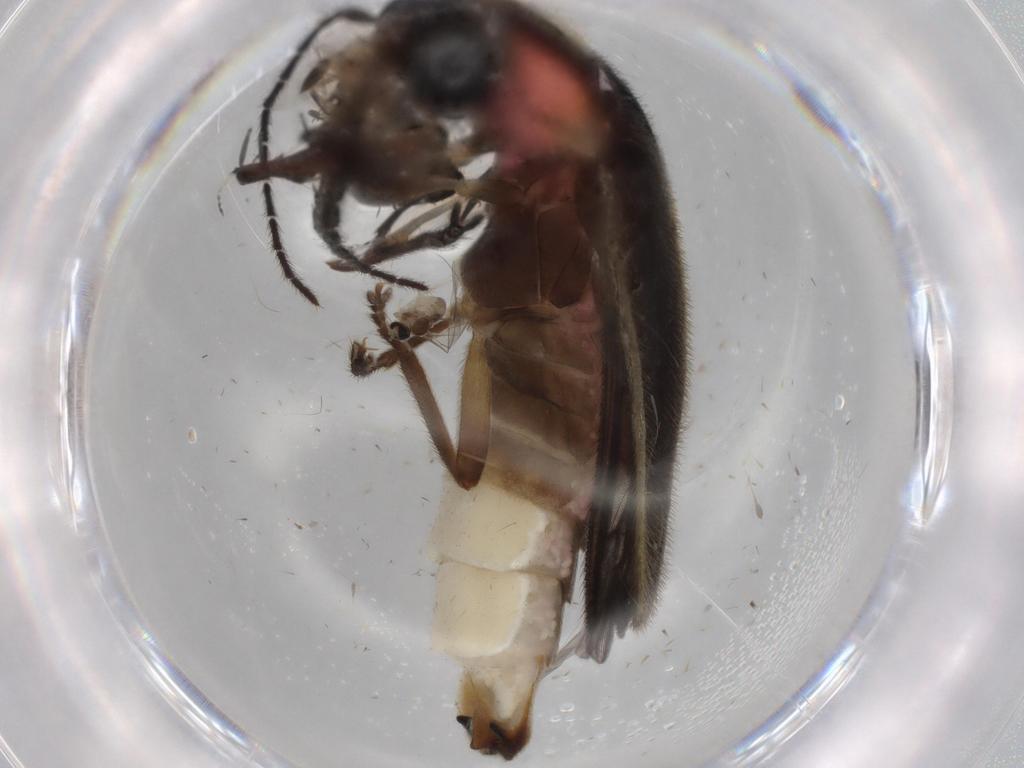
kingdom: Animalia
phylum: Arthropoda
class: Insecta
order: Coleoptera
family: Lampyridae
